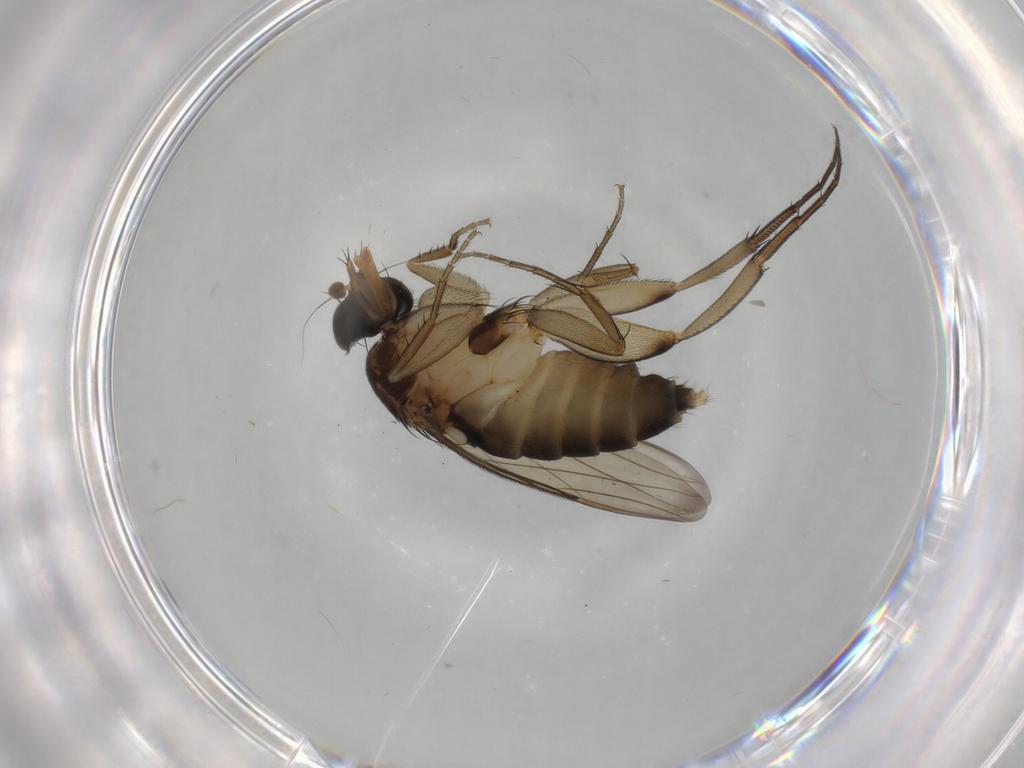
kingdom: Animalia
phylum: Arthropoda
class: Insecta
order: Diptera
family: Phoridae
